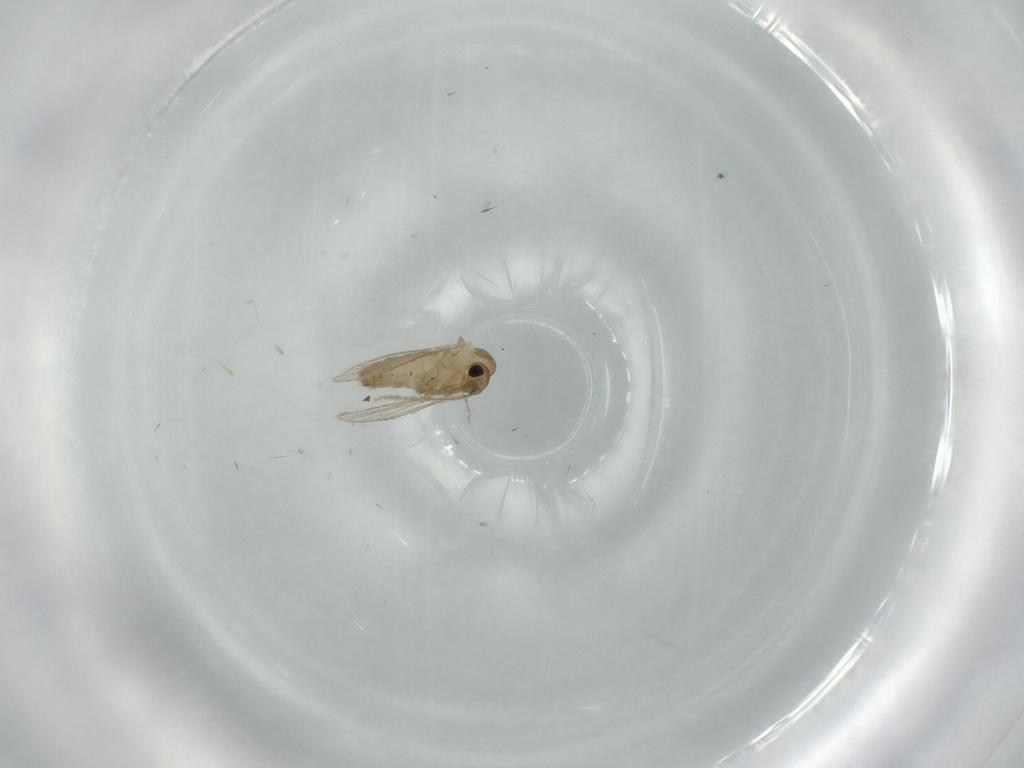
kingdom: Animalia
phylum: Arthropoda
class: Insecta
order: Diptera
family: Psychodidae
